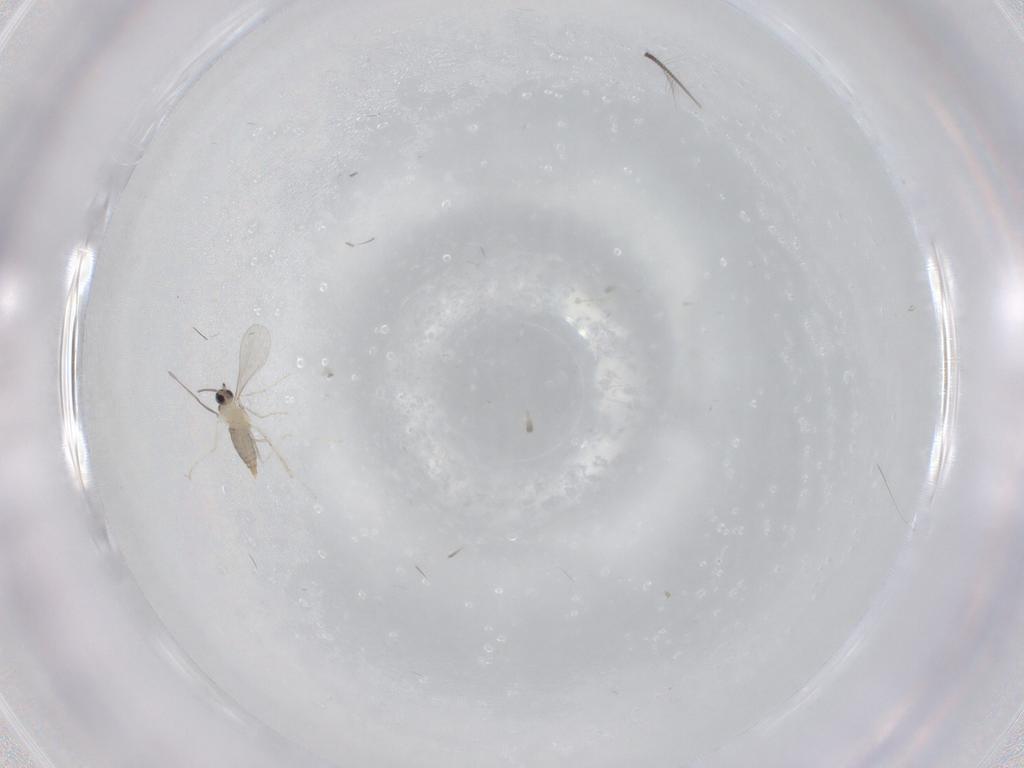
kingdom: Animalia
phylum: Arthropoda
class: Insecta
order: Diptera
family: Cecidomyiidae
